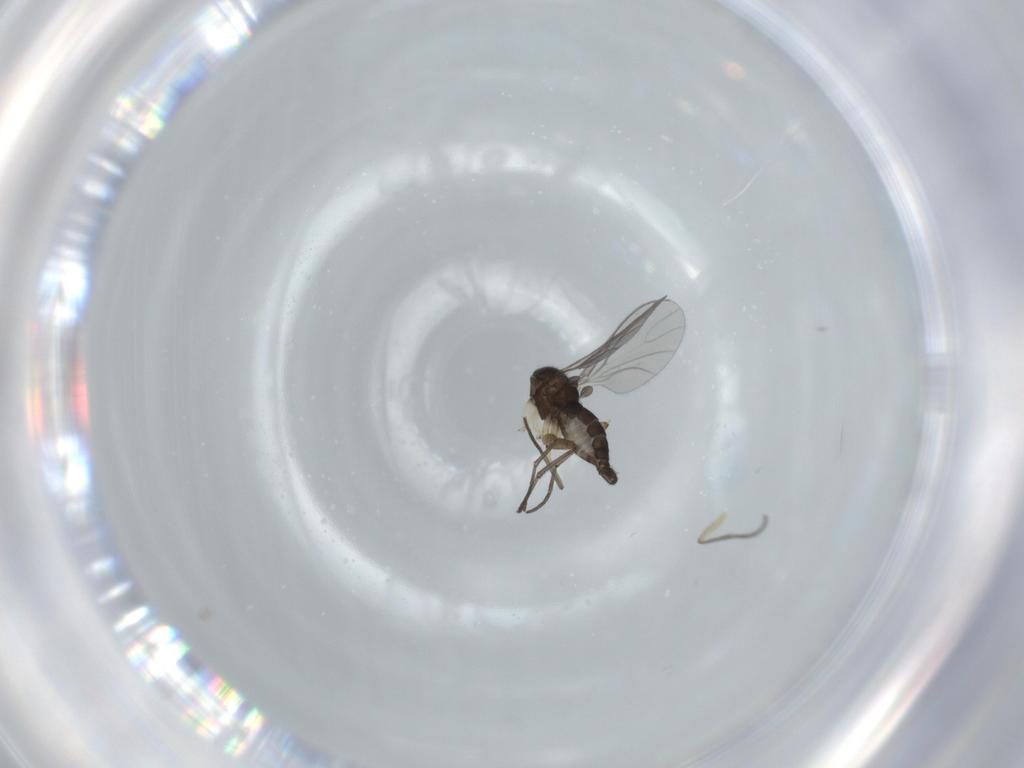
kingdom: Animalia
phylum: Arthropoda
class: Insecta
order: Diptera
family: Sciaridae
